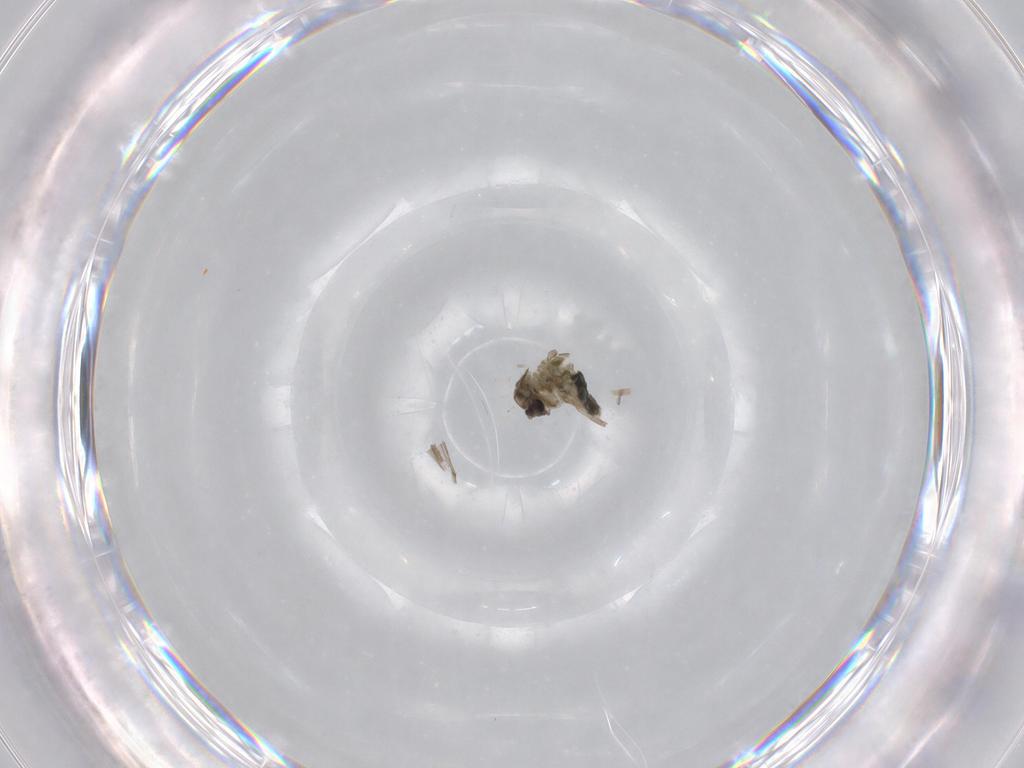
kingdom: Animalia
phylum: Arthropoda
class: Insecta
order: Diptera
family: Chironomidae
